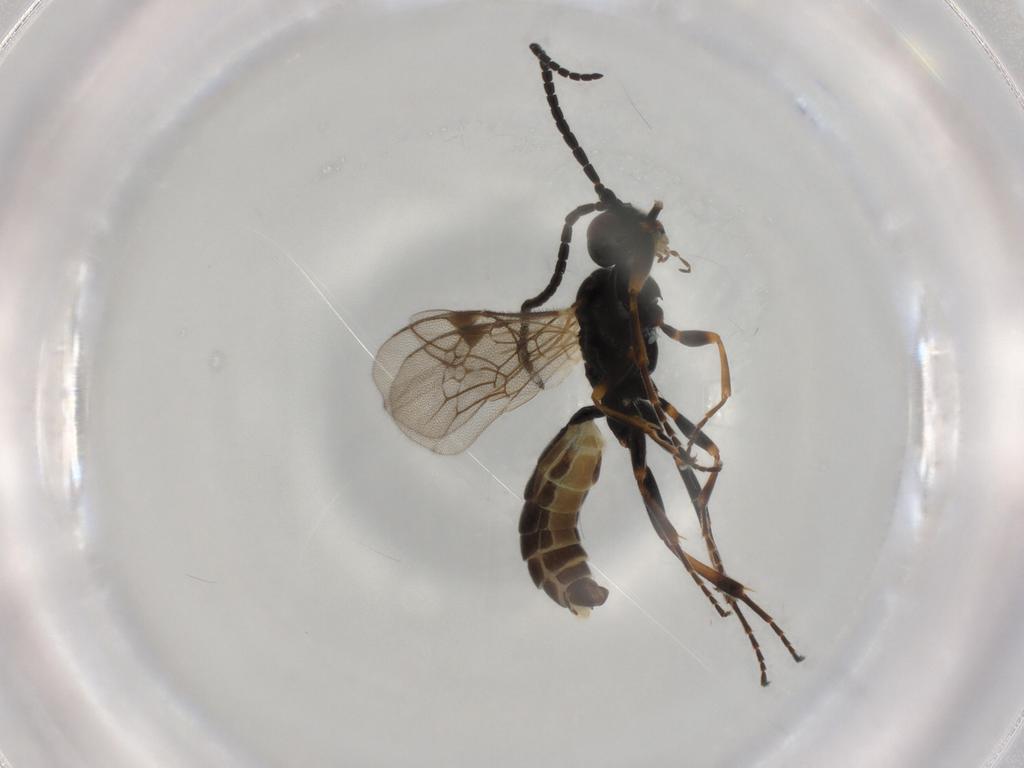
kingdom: Animalia
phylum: Arthropoda
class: Insecta
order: Hymenoptera
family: Ichneumonidae
